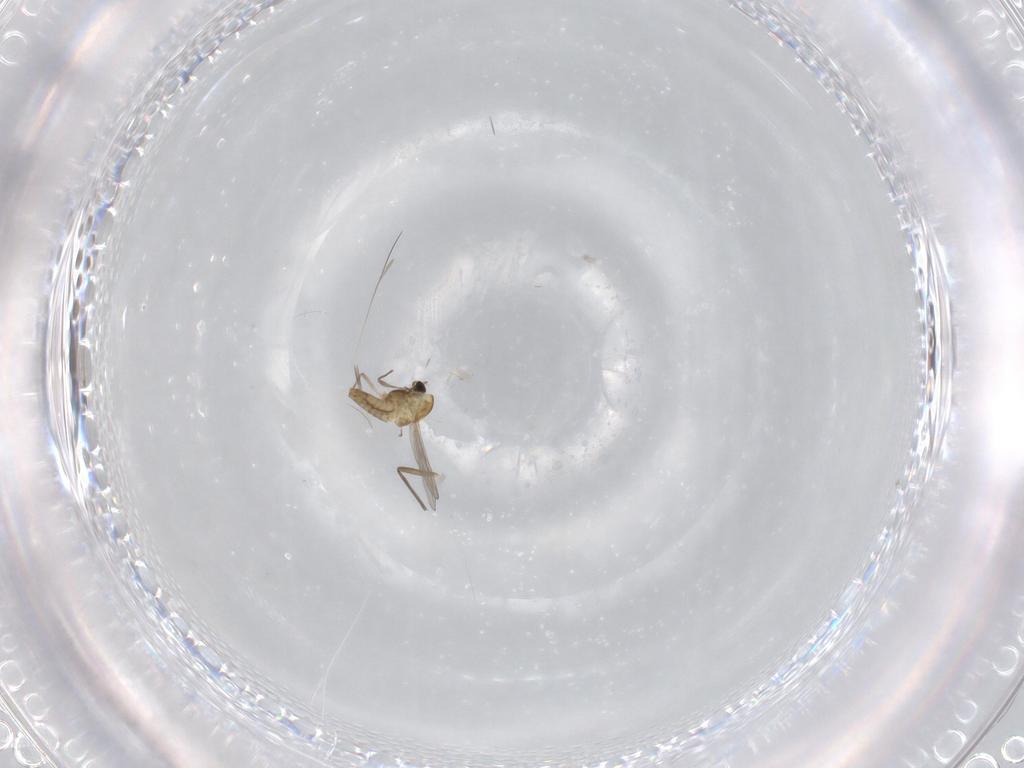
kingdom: Animalia
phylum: Arthropoda
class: Insecta
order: Diptera
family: Chironomidae
